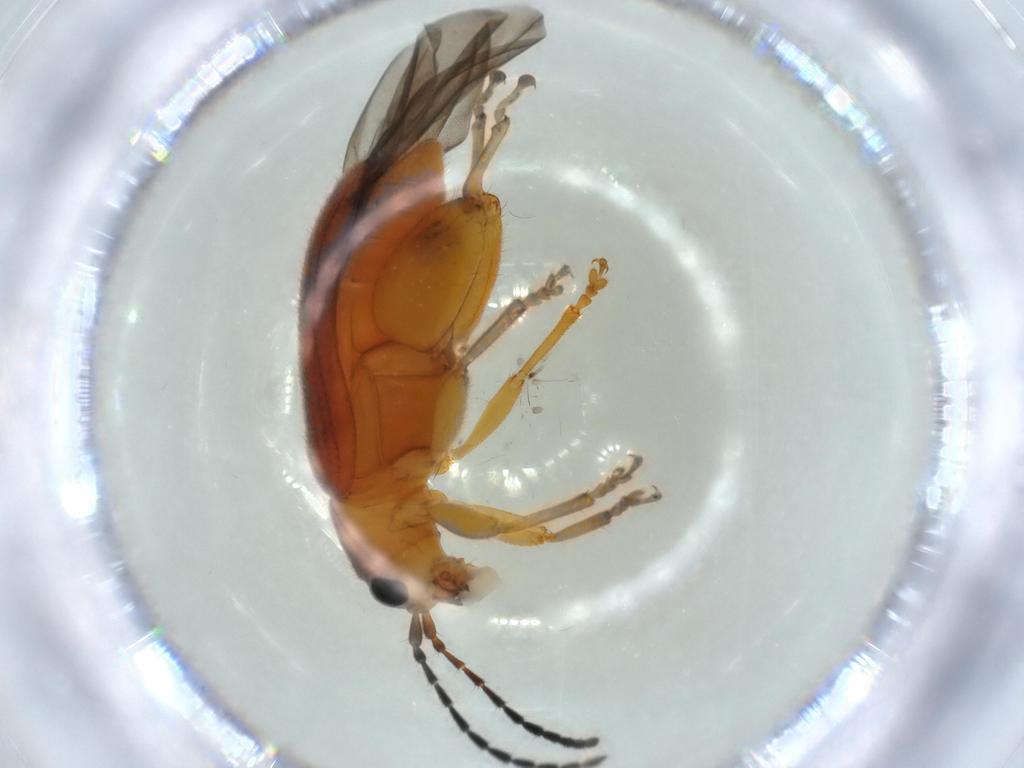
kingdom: Animalia
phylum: Arthropoda
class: Insecta
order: Coleoptera
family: Chrysomelidae
